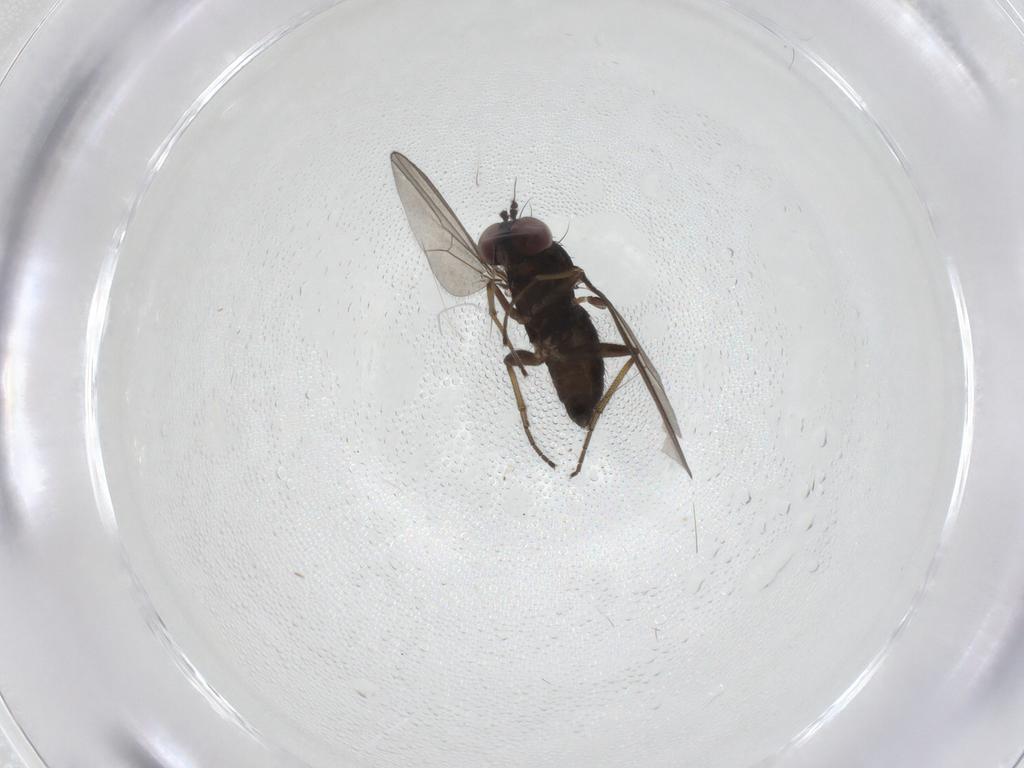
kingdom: Animalia
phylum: Arthropoda
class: Insecta
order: Diptera
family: Dolichopodidae
